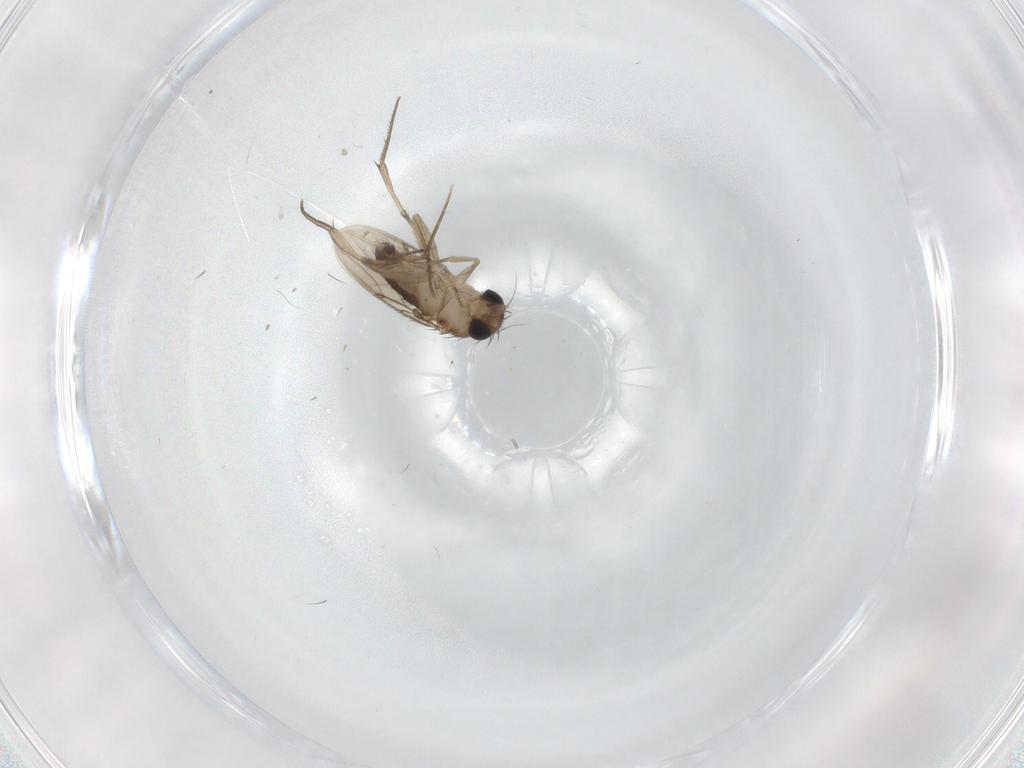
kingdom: Animalia
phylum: Arthropoda
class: Insecta
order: Diptera
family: Phoridae
